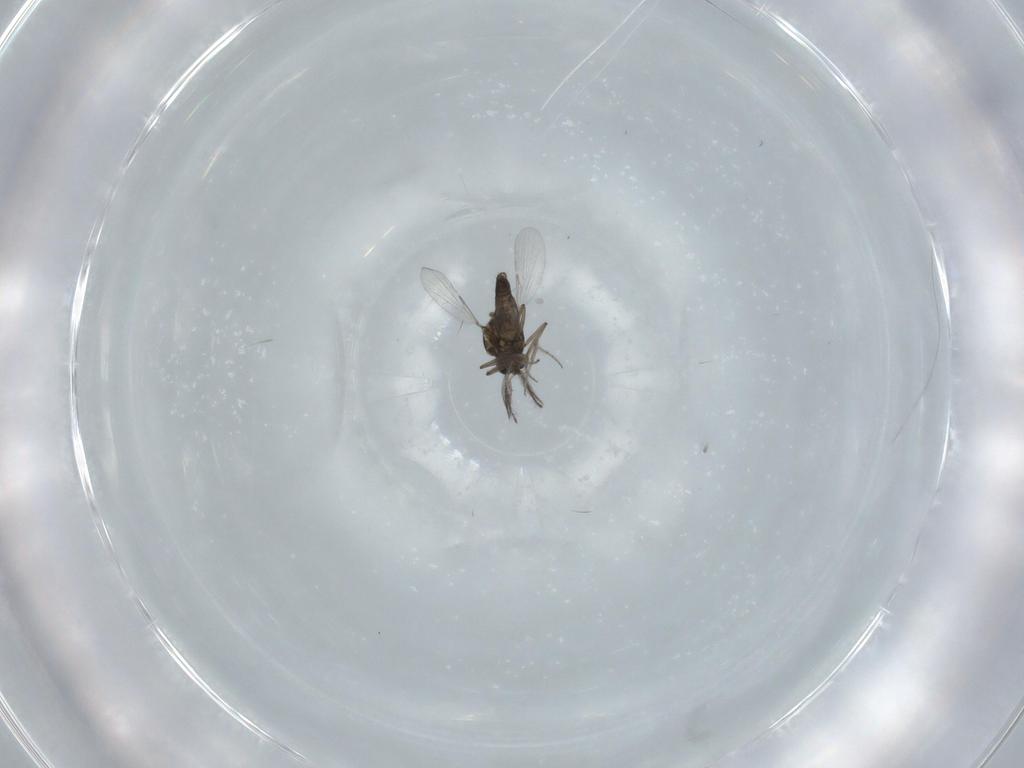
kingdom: Animalia
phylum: Arthropoda
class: Insecta
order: Diptera
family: Ceratopogonidae
